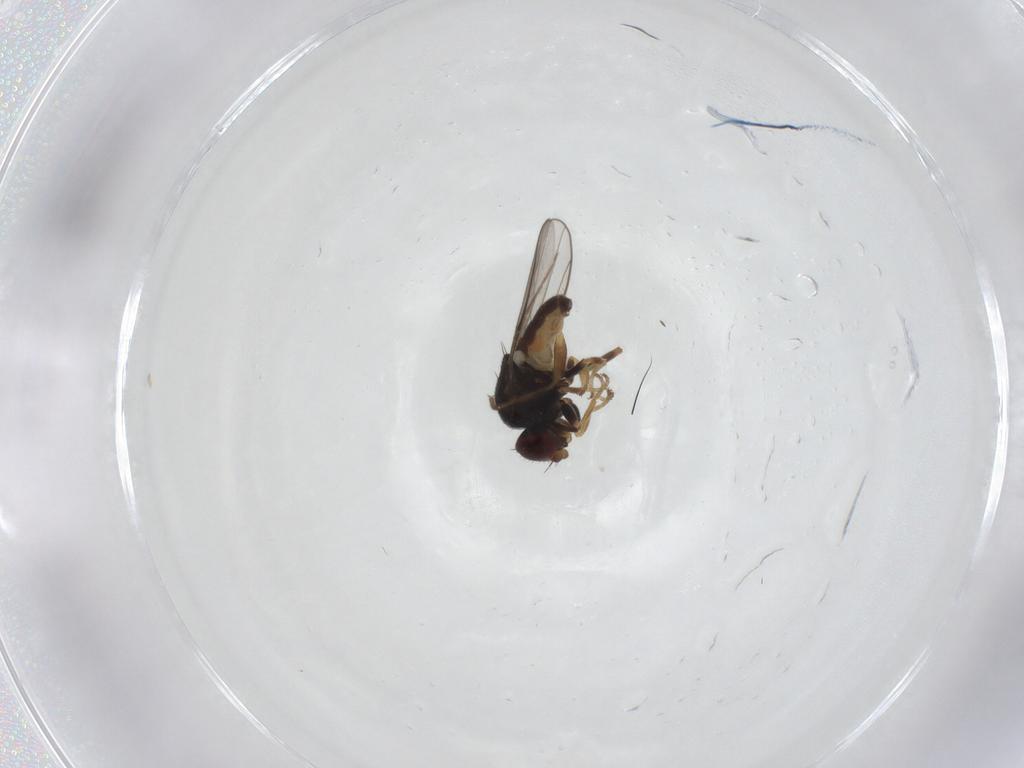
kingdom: Animalia
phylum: Arthropoda
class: Insecta
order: Diptera
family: Chloropidae
